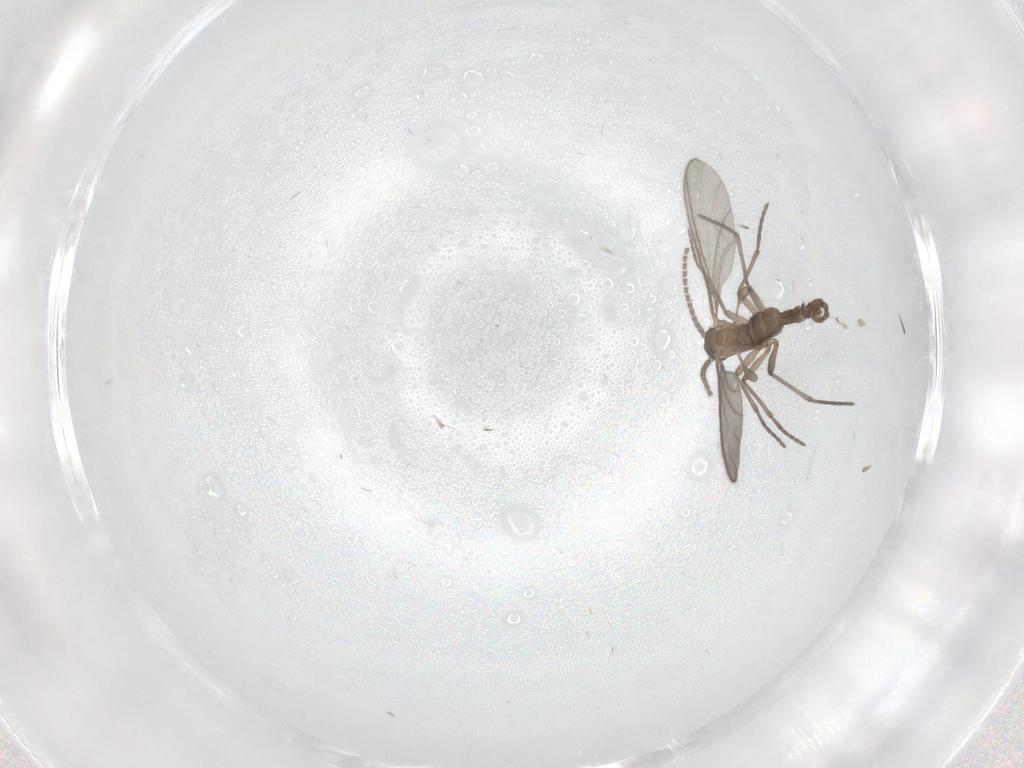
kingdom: Animalia
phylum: Arthropoda
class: Insecta
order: Diptera
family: Sciaridae
